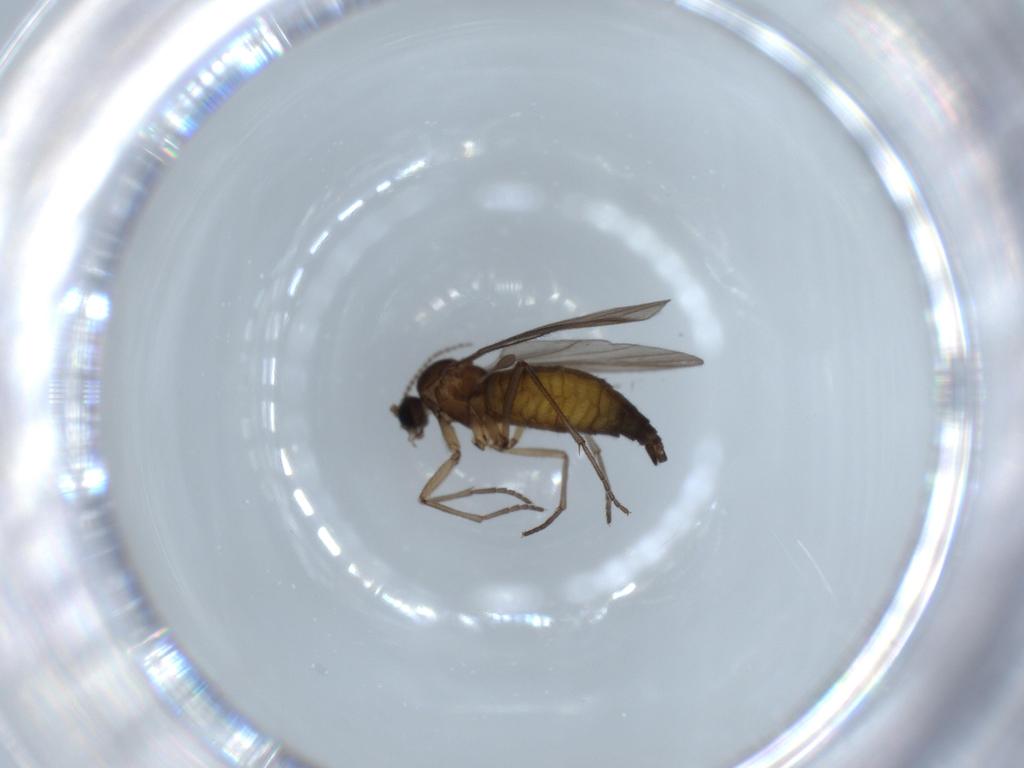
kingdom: Animalia
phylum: Arthropoda
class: Insecta
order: Diptera
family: Sciaridae
